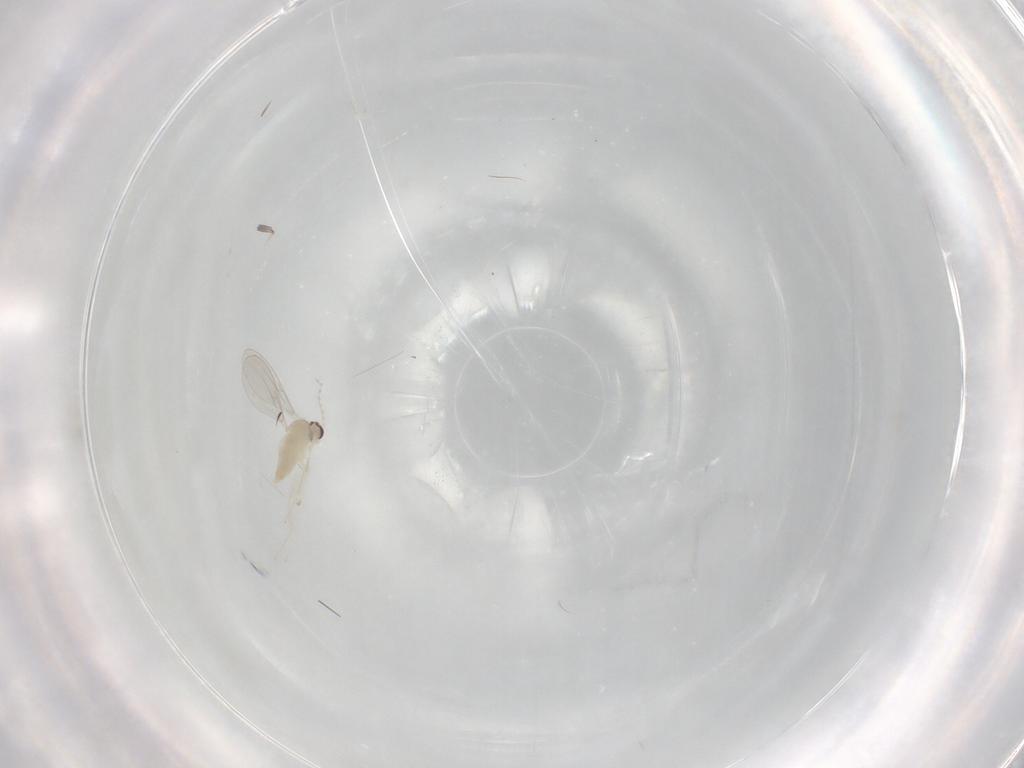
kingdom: Animalia
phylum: Arthropoda
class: Insecta
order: Diptera
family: Cecidomyiidae
